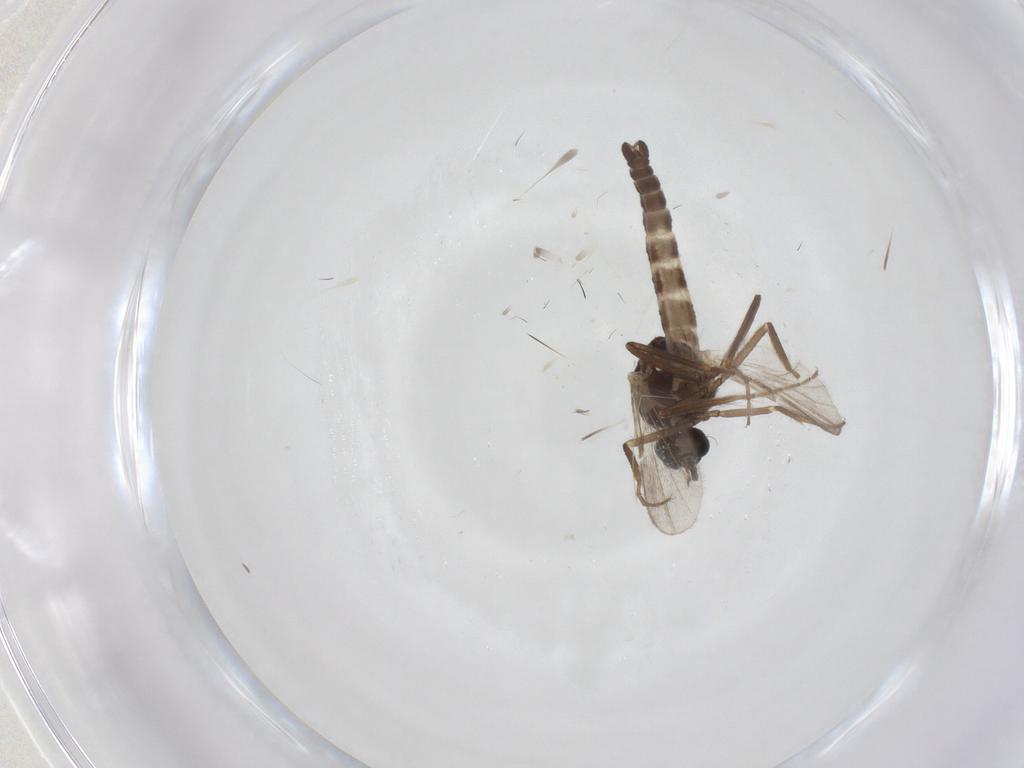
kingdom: Animalia
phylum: Arthropoda
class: Insecta
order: Diptera
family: Ceratopogonidae
